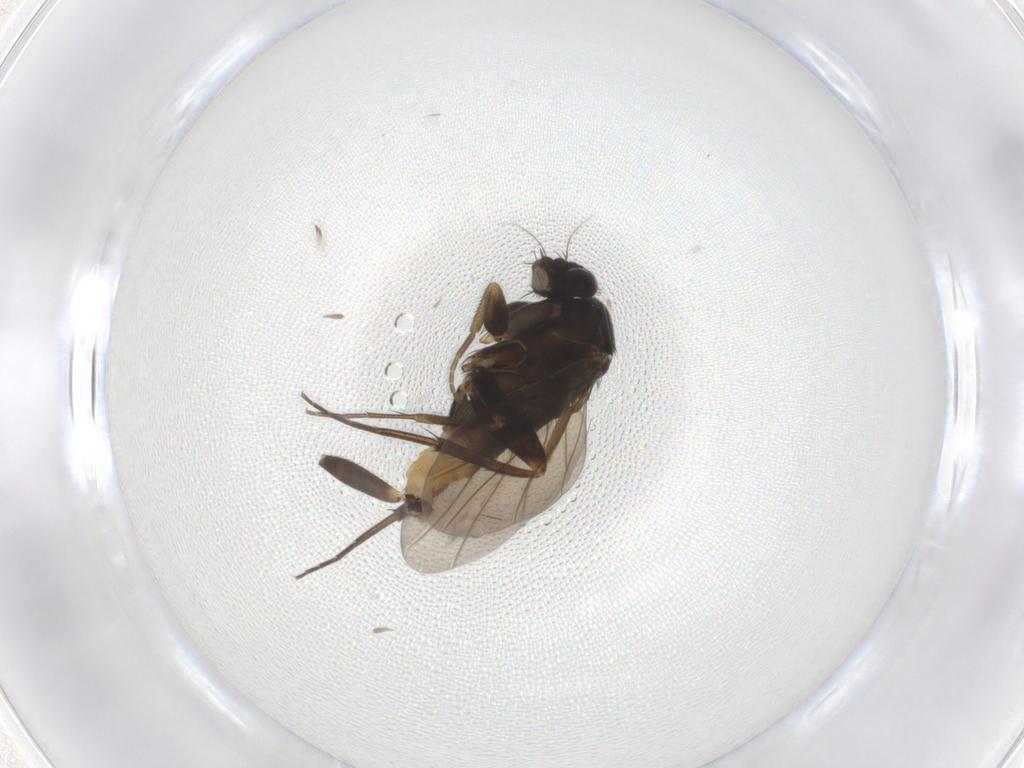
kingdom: Animalia
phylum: Arthropoda
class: Insecta
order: Diptera
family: Phoridae
